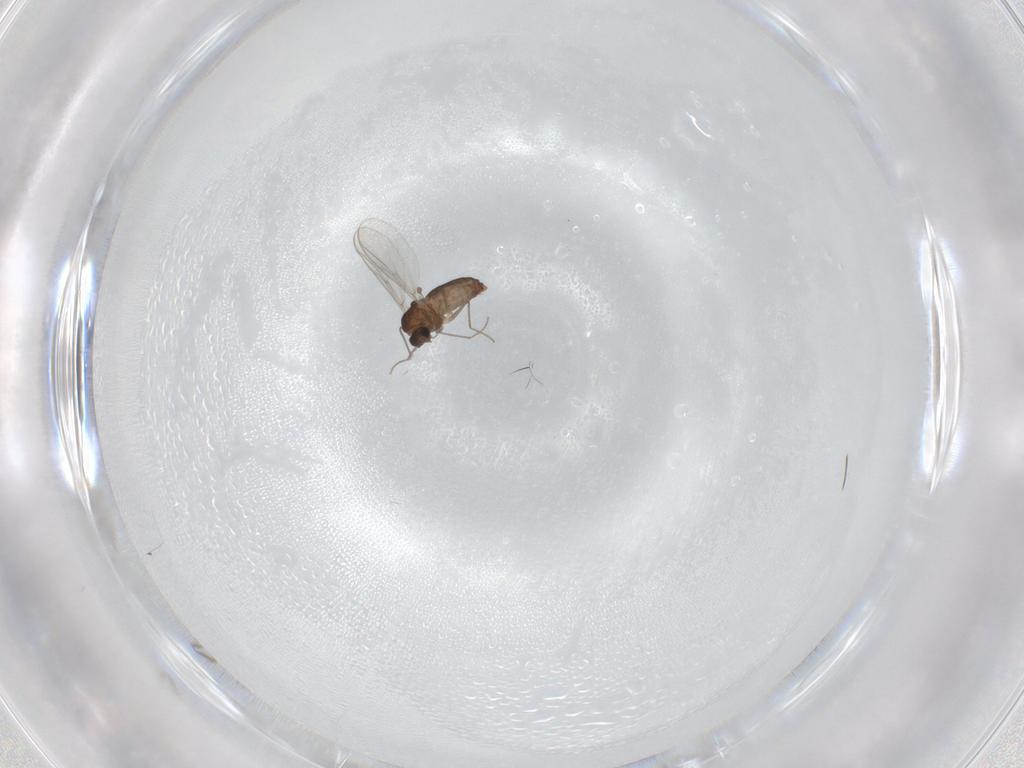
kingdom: Animalia
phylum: Arthropoda
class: Insecta
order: Diptera
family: Chironomidae
